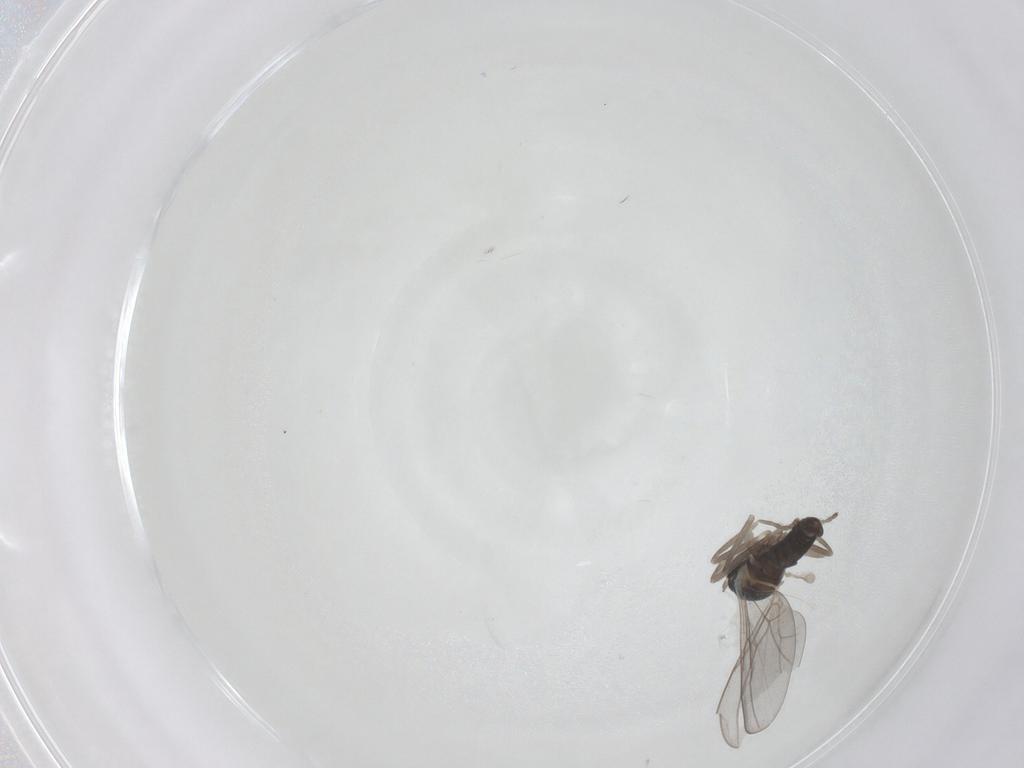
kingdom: Animalia
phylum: Arthropoda
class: Insecta
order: Diptera
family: Cecidomyiidae
